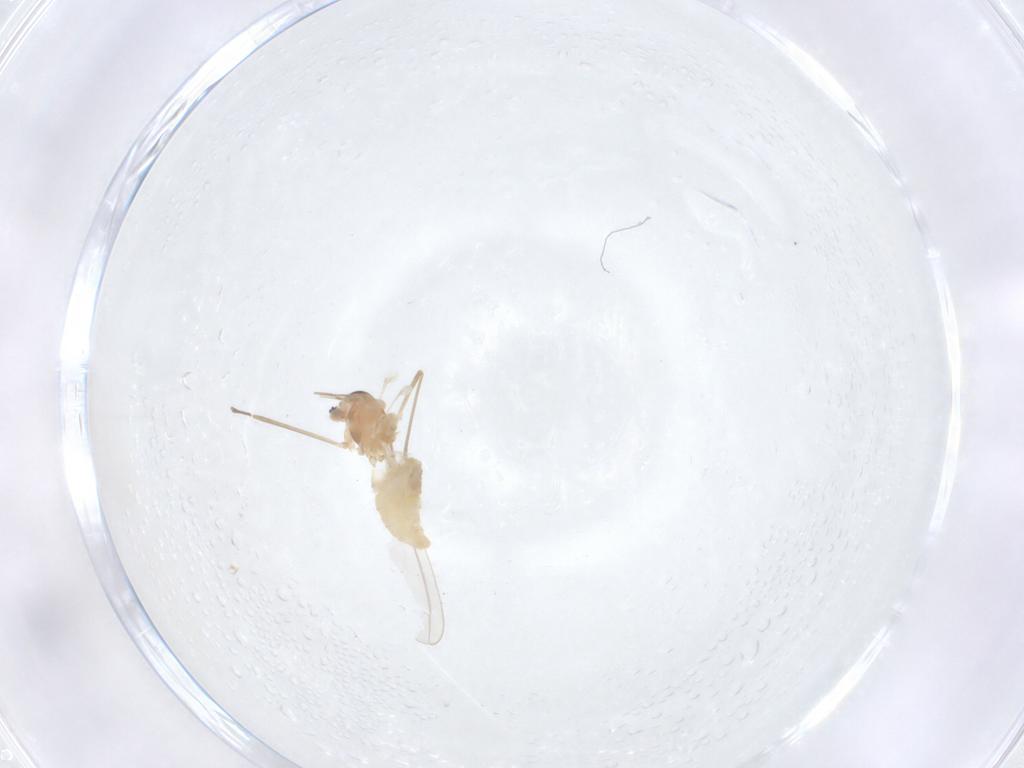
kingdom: Animalia
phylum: Arthropoda
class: Insecta
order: Diptera
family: Cecidomyiidae
